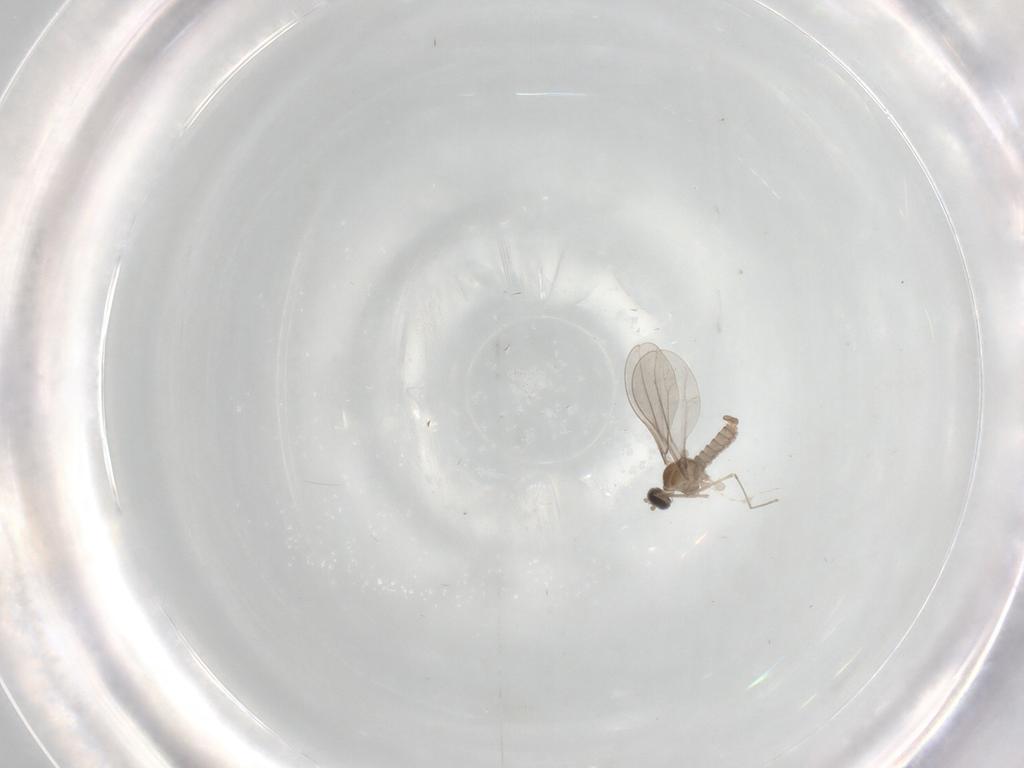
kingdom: Animalia
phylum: Arthropoda
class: Insecta
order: Diptera
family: Cecidomyiidae
